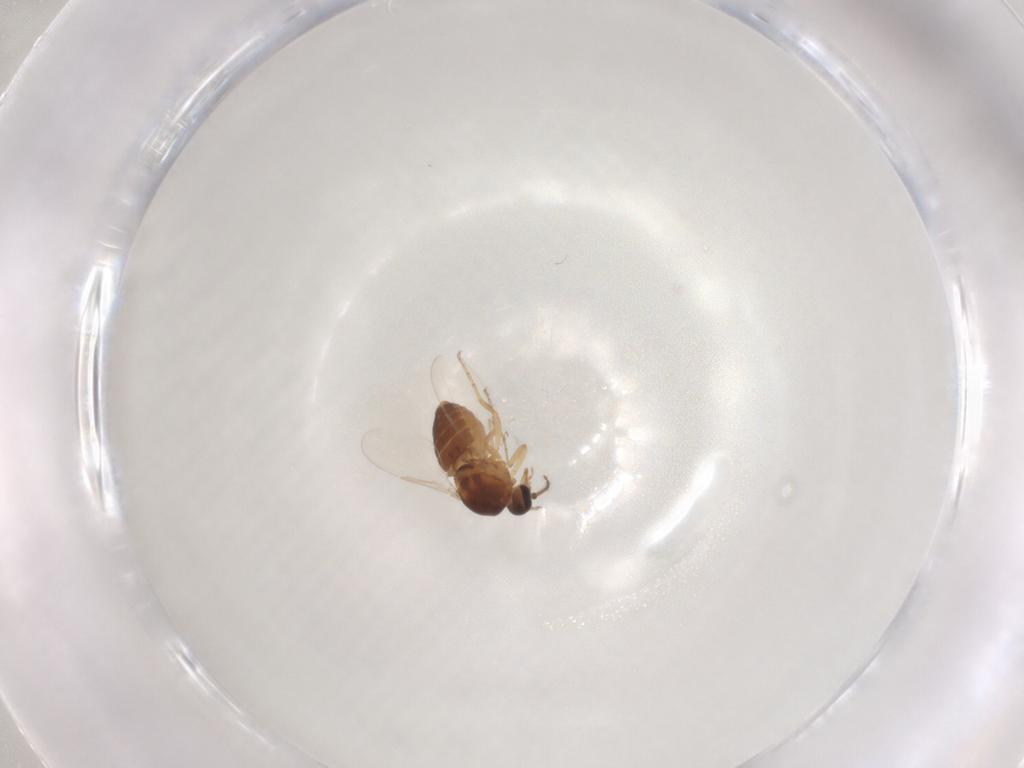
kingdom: Animalia
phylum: Arthropoda
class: Insecta
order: Diptera
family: Ceratopogonidae
